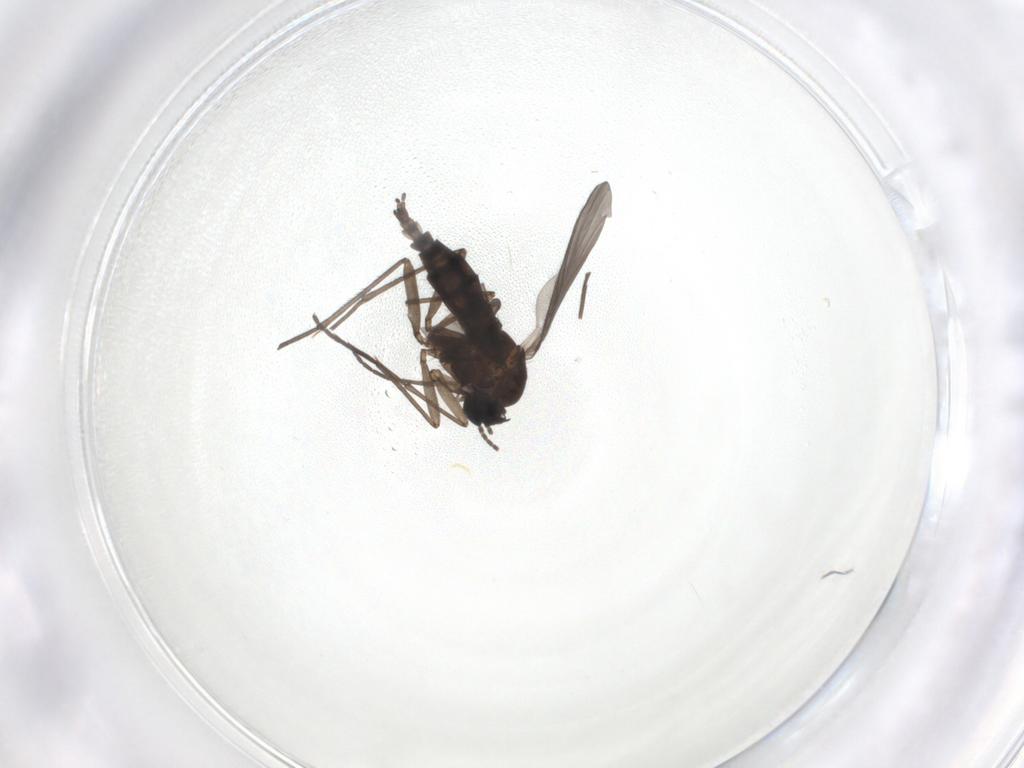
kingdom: Animalia
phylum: Arthropoda
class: Insecta
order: Diptera
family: Sciaridae
